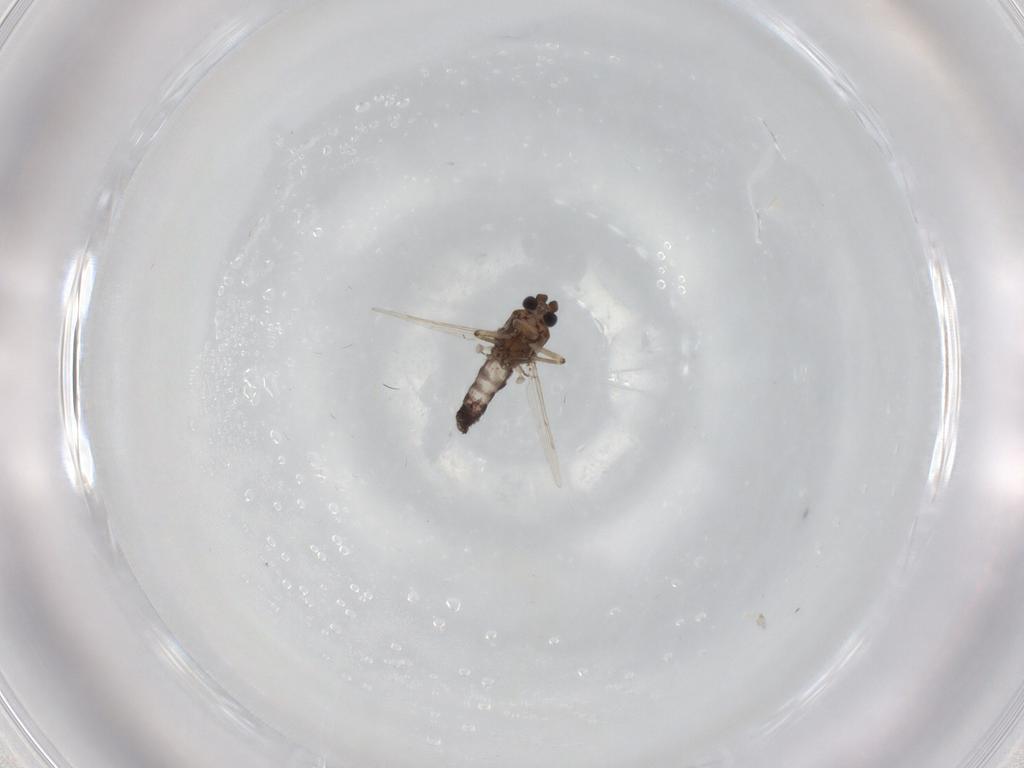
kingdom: Animalia
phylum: Arthropoda
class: Insecta
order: Diptera
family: Ceratopogonidae
